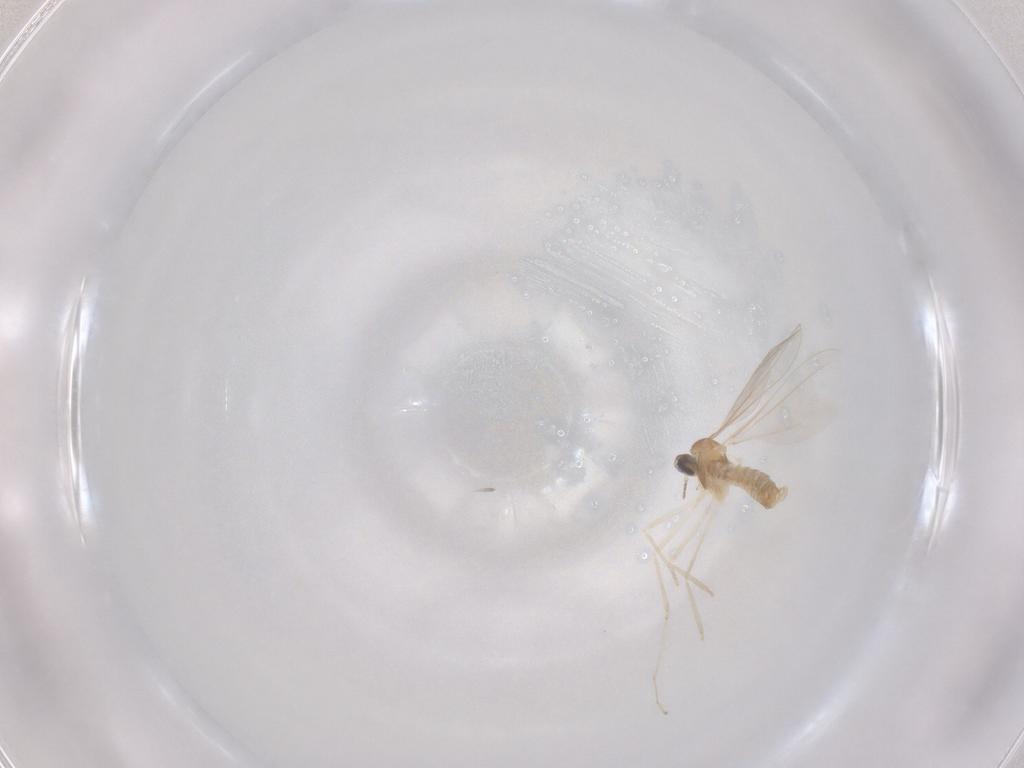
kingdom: Animalia
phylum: Arthropoda
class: Insecta
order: Diptera
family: Cecidomyiidae
